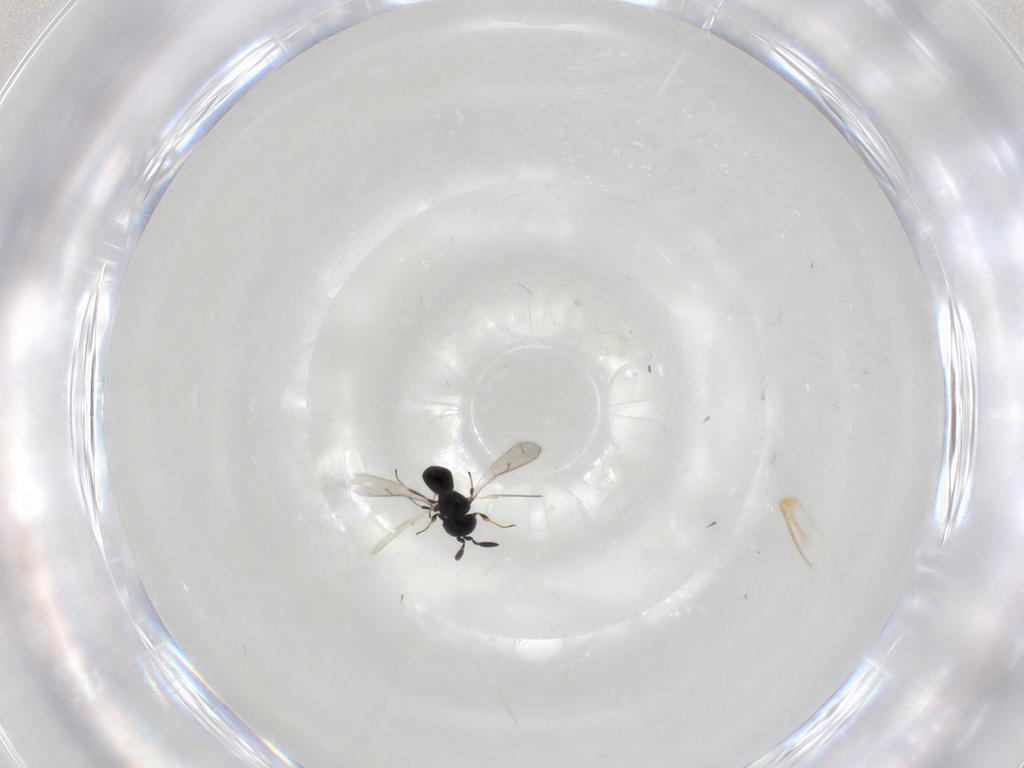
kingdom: Animalia
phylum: Arthropoda
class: Insecta
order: Hymenoptera
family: Scelionidae
